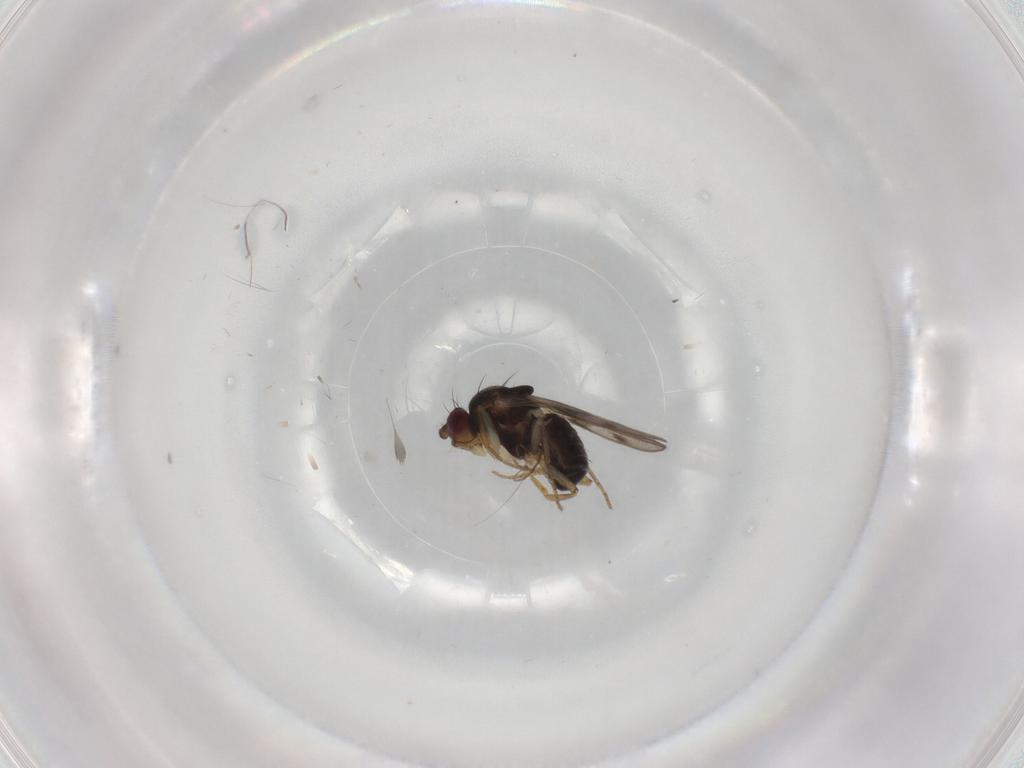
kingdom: Animalia
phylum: Arthropoda
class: Insecta
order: Diptera
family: Sphaeroceridae
